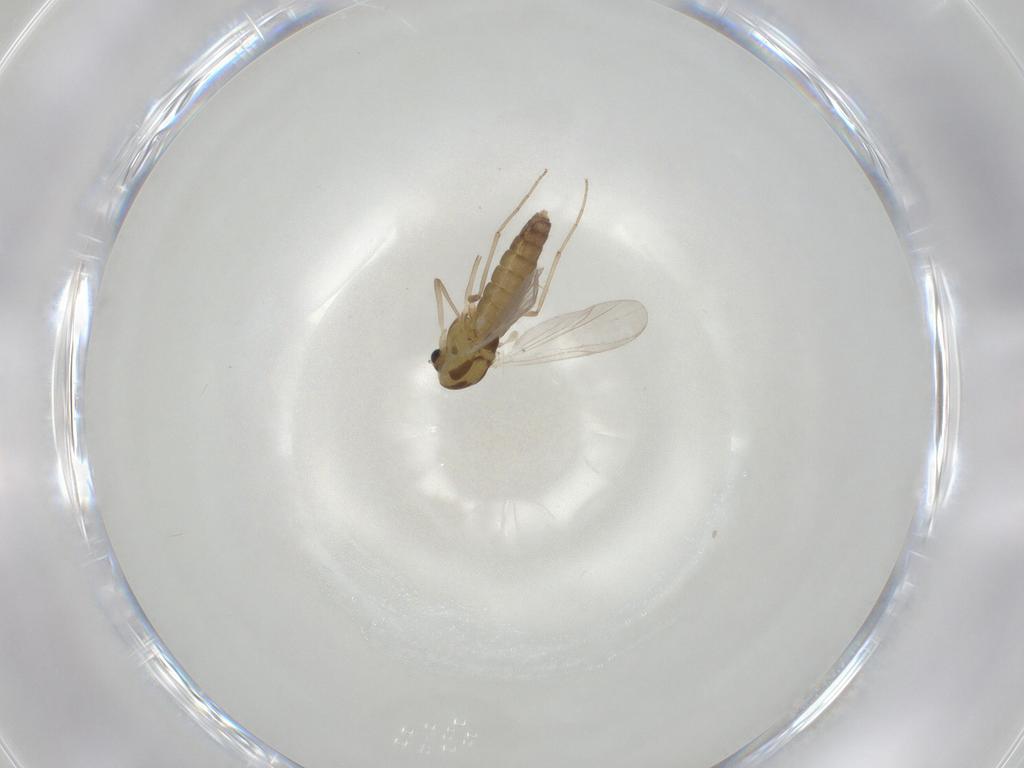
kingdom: Animalia
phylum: Arthropoda
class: Insecta
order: Diptera
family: Chironomidae
